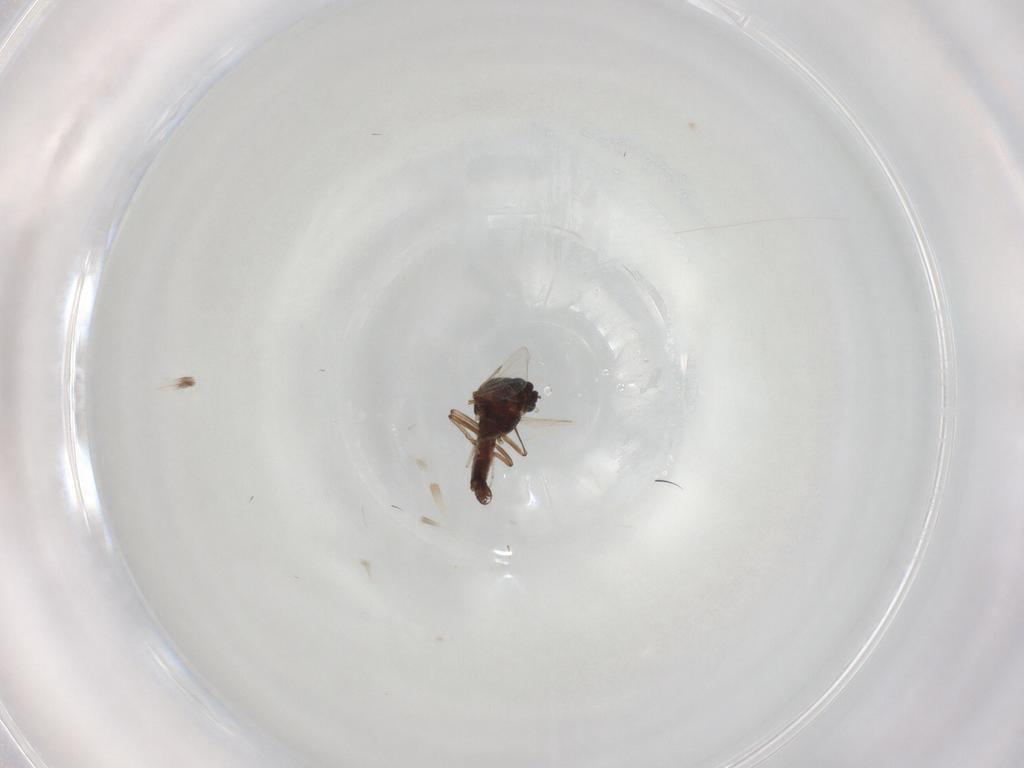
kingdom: Animalia
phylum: Arthropoda
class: Insecta
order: Diptera
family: Ceratopogonidae
